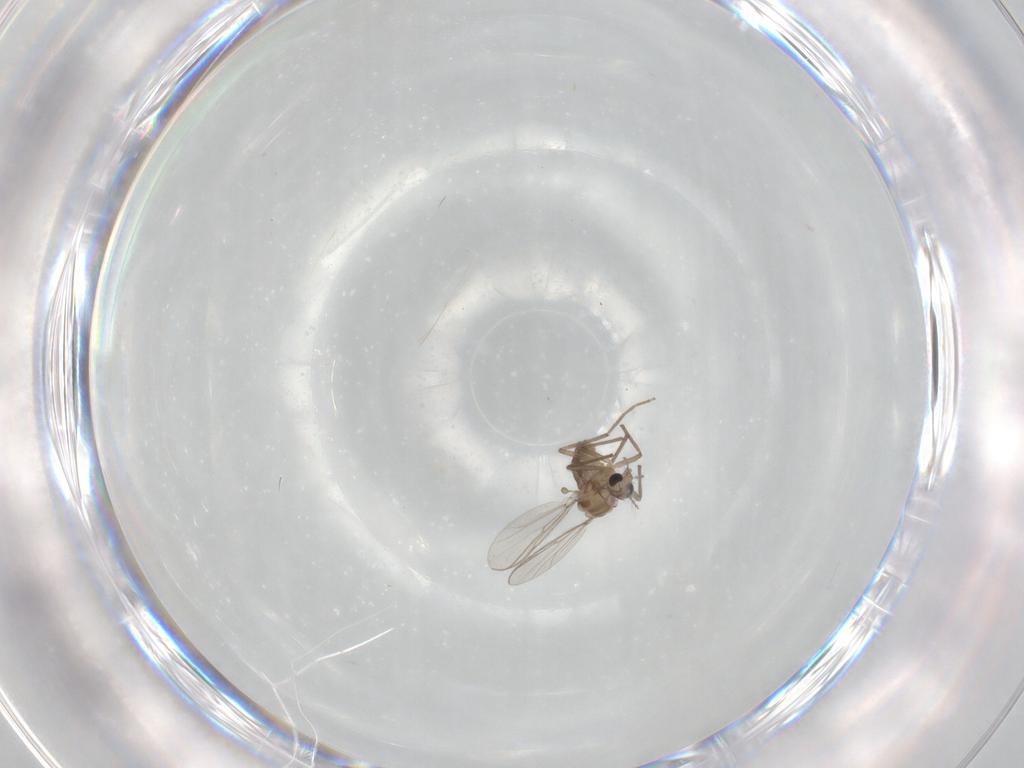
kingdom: Animalia
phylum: Arthropoda
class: Insecta
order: Diptera
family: Chironomidae
